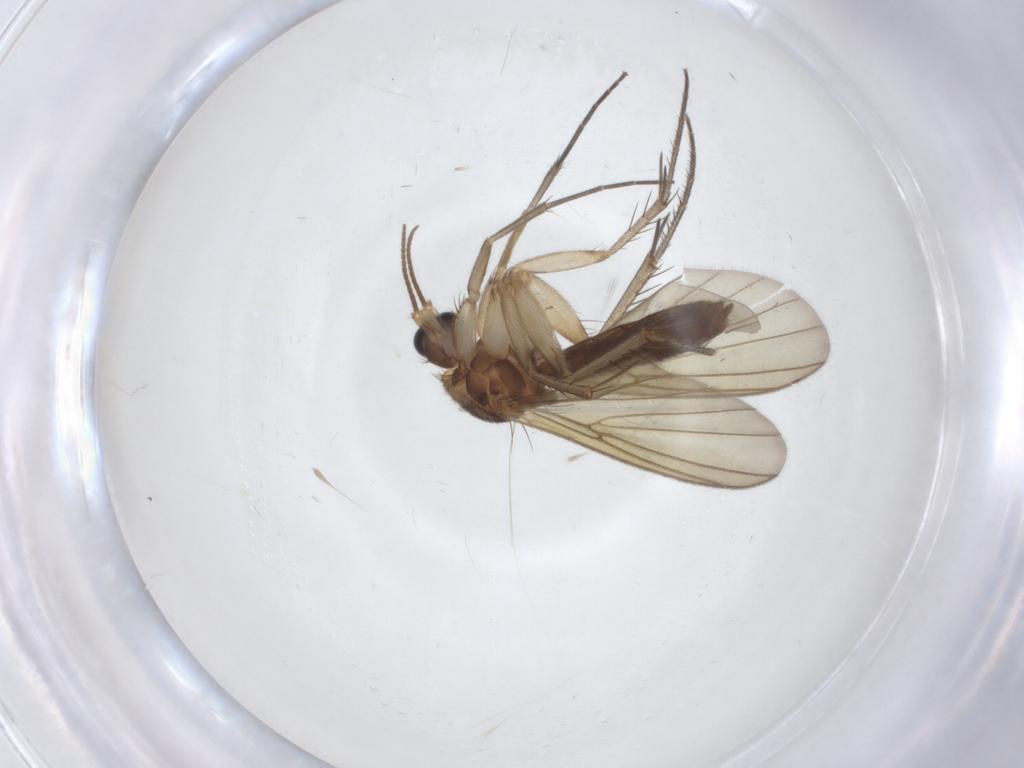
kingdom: Animalia
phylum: Arthropoda
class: Insecta
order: Diptera
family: Mycetophilidae
